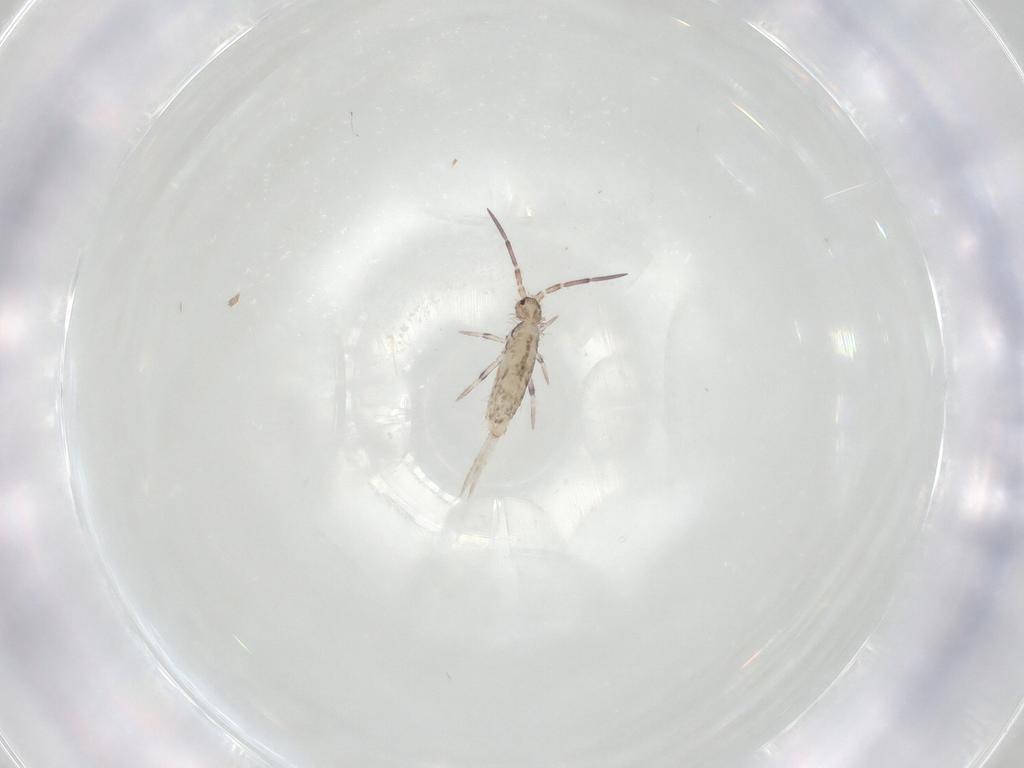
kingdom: Animalia
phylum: Arthropoda
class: Collembola
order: Entomobryomorpha
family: Entomobryidae
